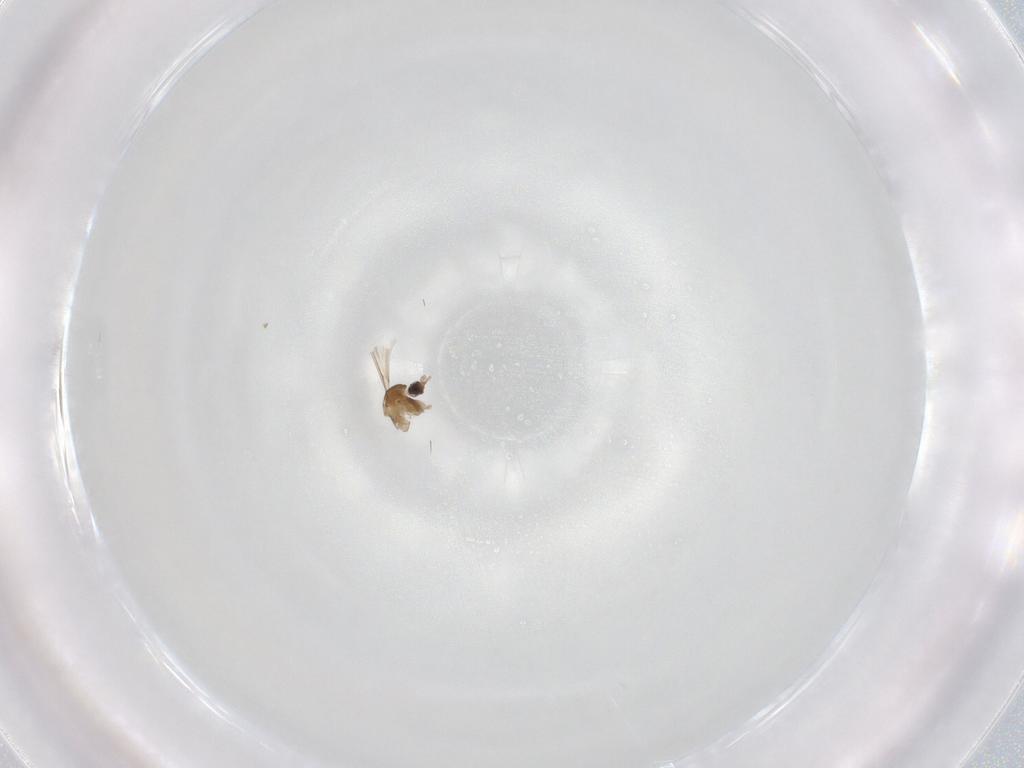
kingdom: Animalia
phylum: Arthropoda
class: Insecta
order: Diptera
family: Cecidomyiidae
